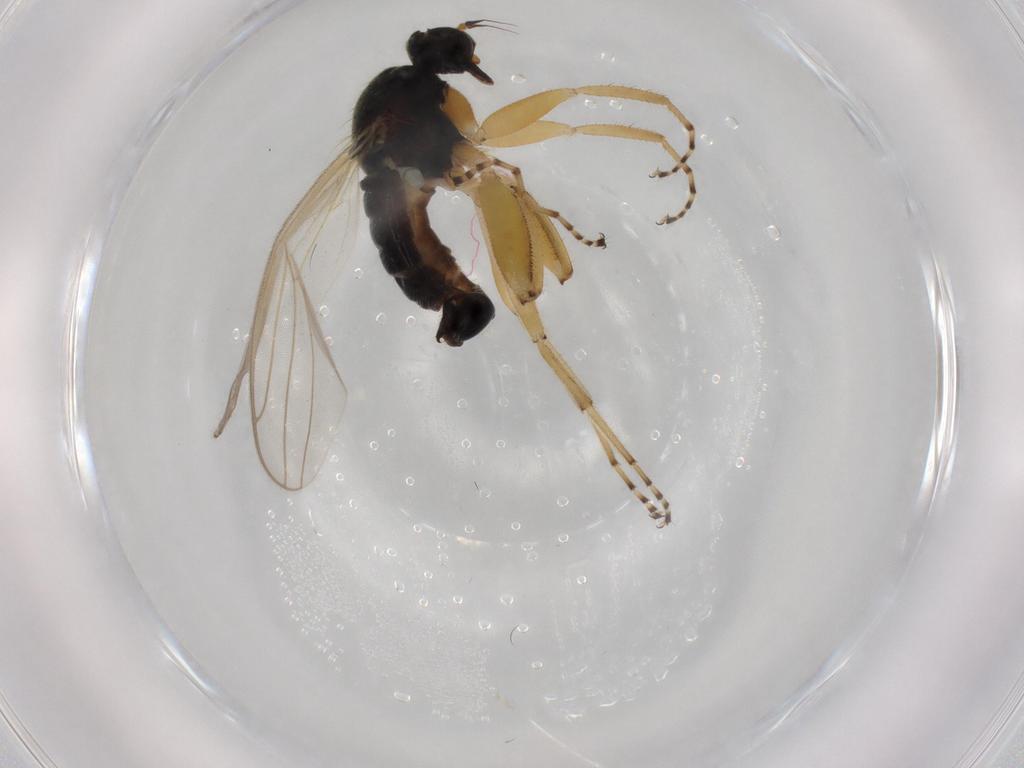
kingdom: Animalia
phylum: Arthropoda
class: Insecta
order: Diptera
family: Hybotidae
